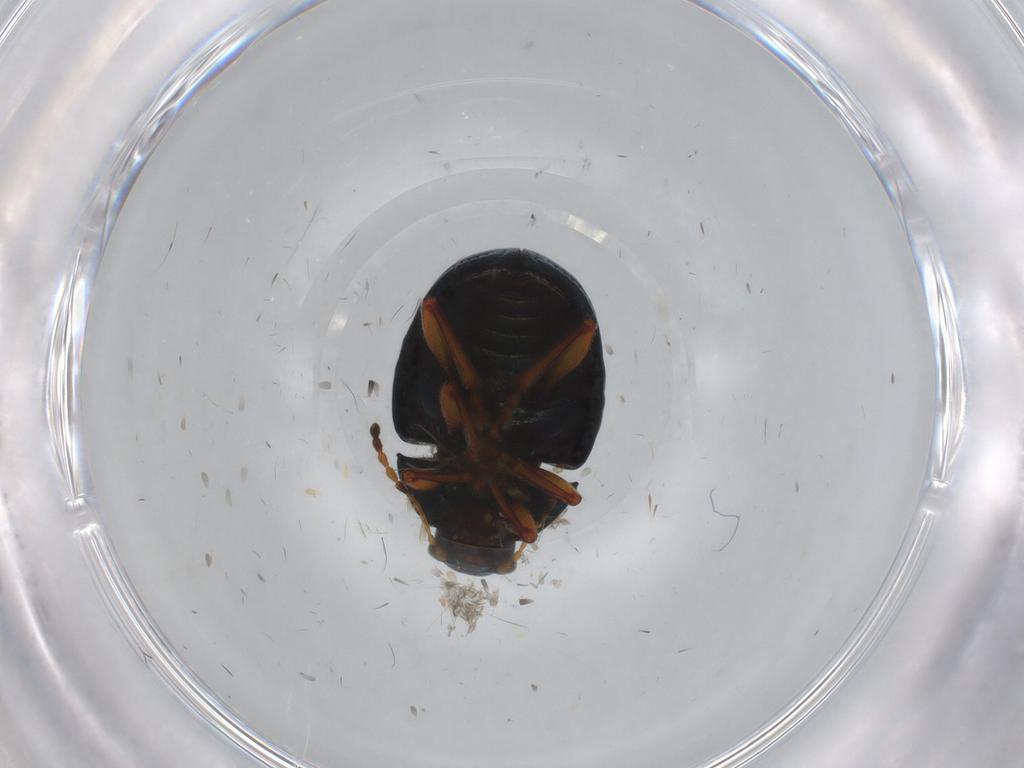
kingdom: Animalia
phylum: Arthropoda
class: Insecta
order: Coleoptera
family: Chrysomelidae
